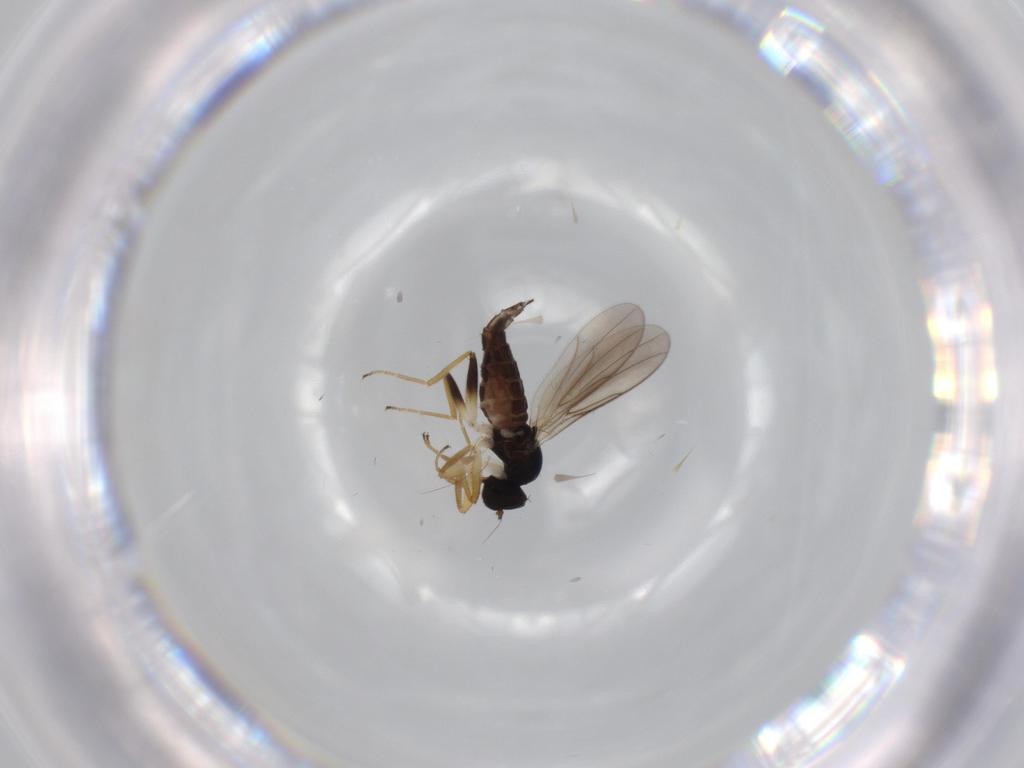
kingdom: Animalia
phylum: Arthropoda
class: Insecta
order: Diptera
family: Hybotidae
